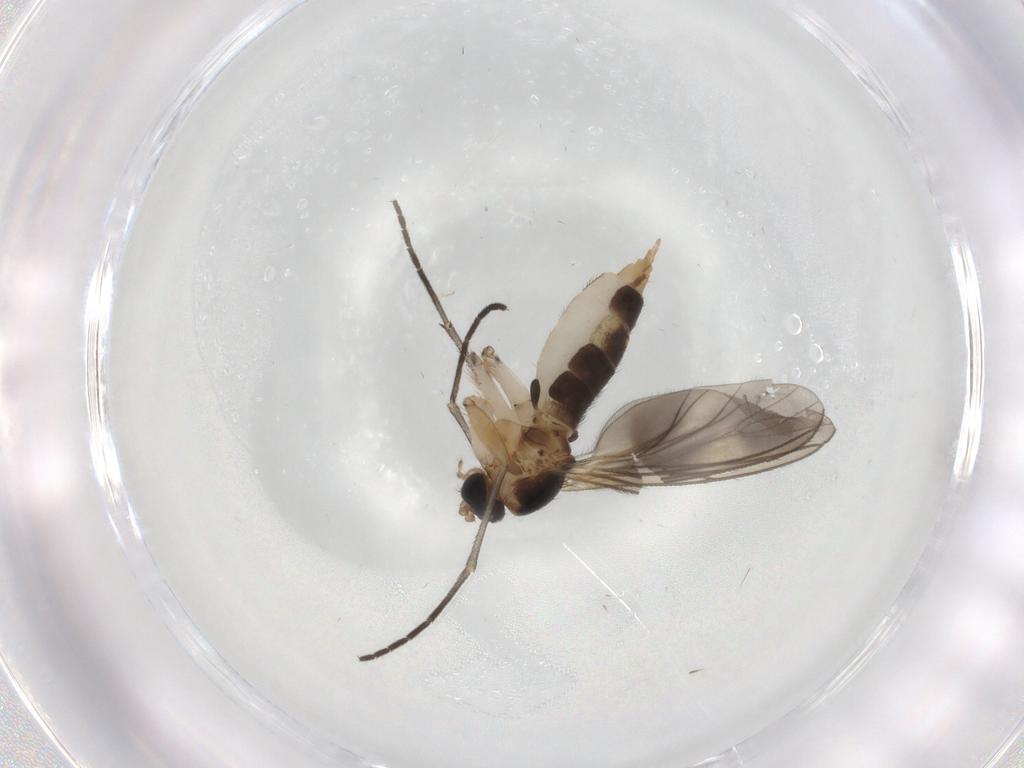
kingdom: Animalia
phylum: Arthropoda
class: Insecta
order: Diptera
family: Sciaridae
